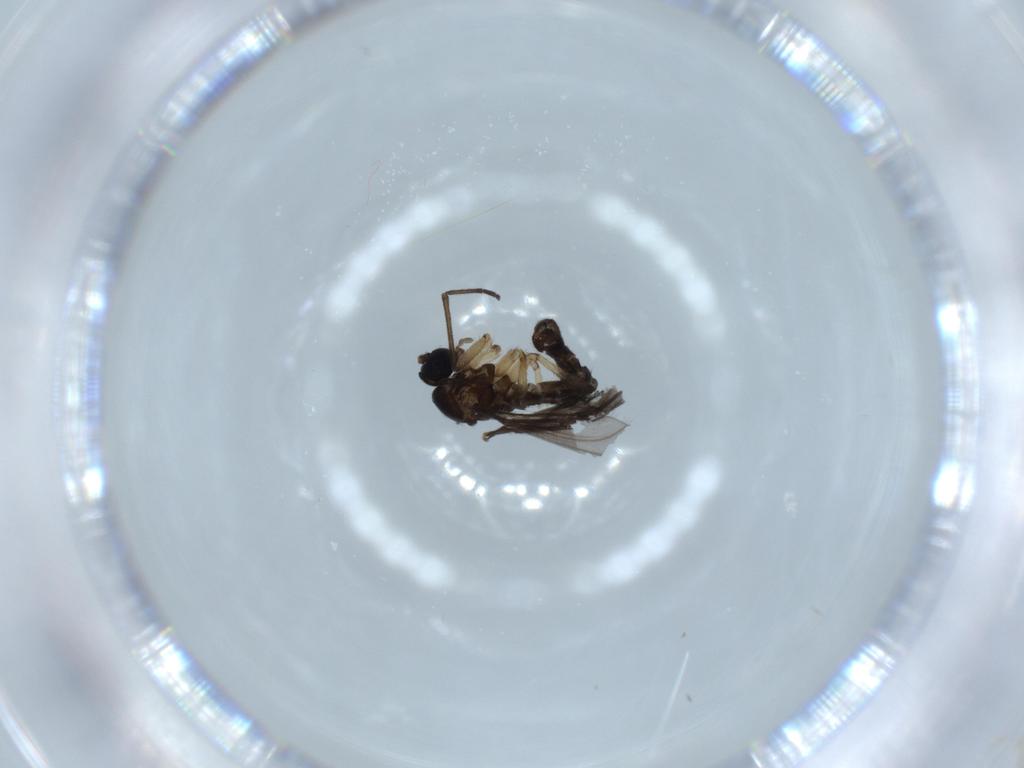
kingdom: Animalia
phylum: Arthropoda
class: Insecta
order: Diptera
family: Sciaridae
